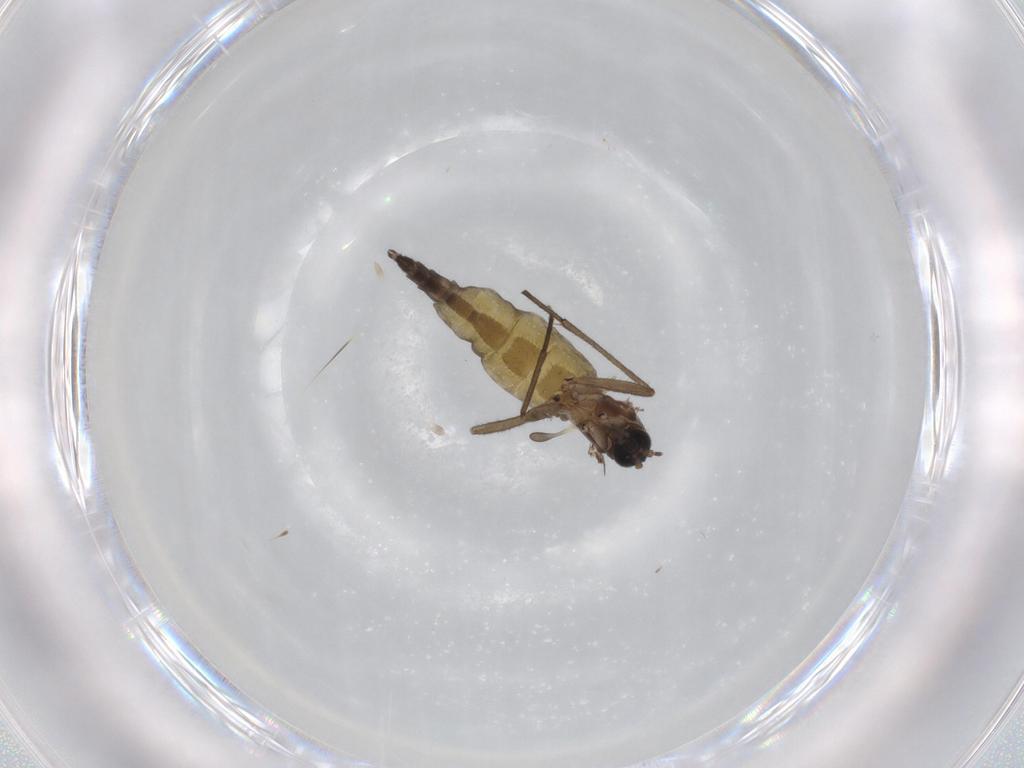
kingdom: Animalia
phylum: Arthropoda
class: Insecta
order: Diptera
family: Sciaridae
